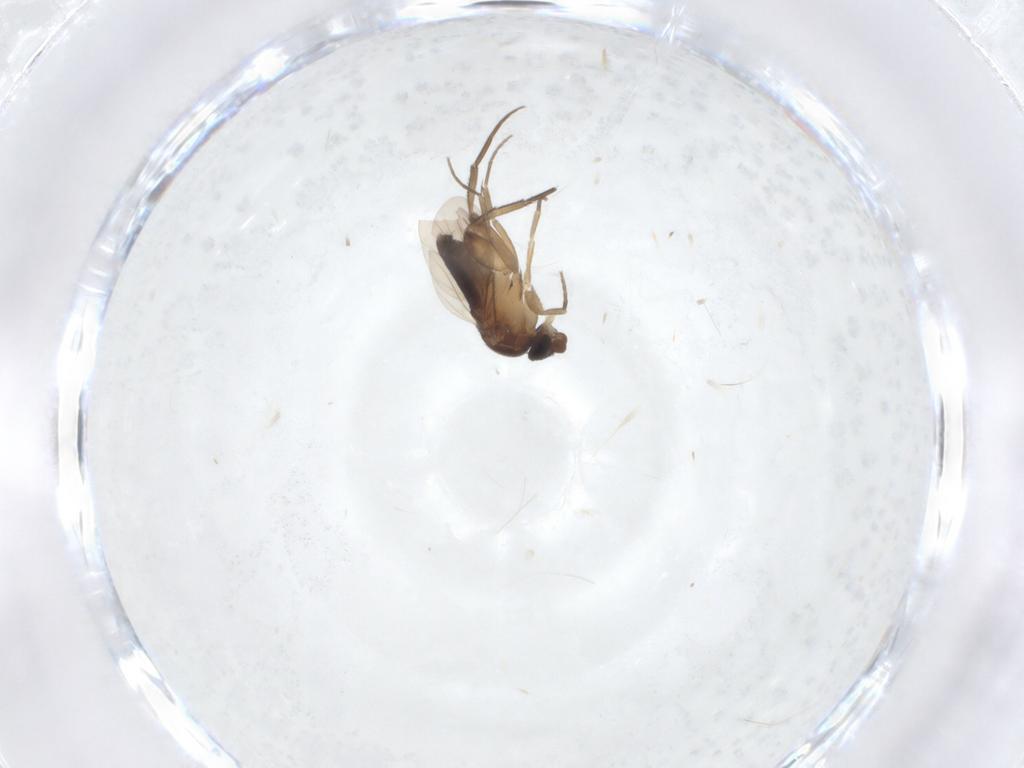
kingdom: Animalia
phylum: Arthropoda
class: Insecta
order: Diptera
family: Phoridae
